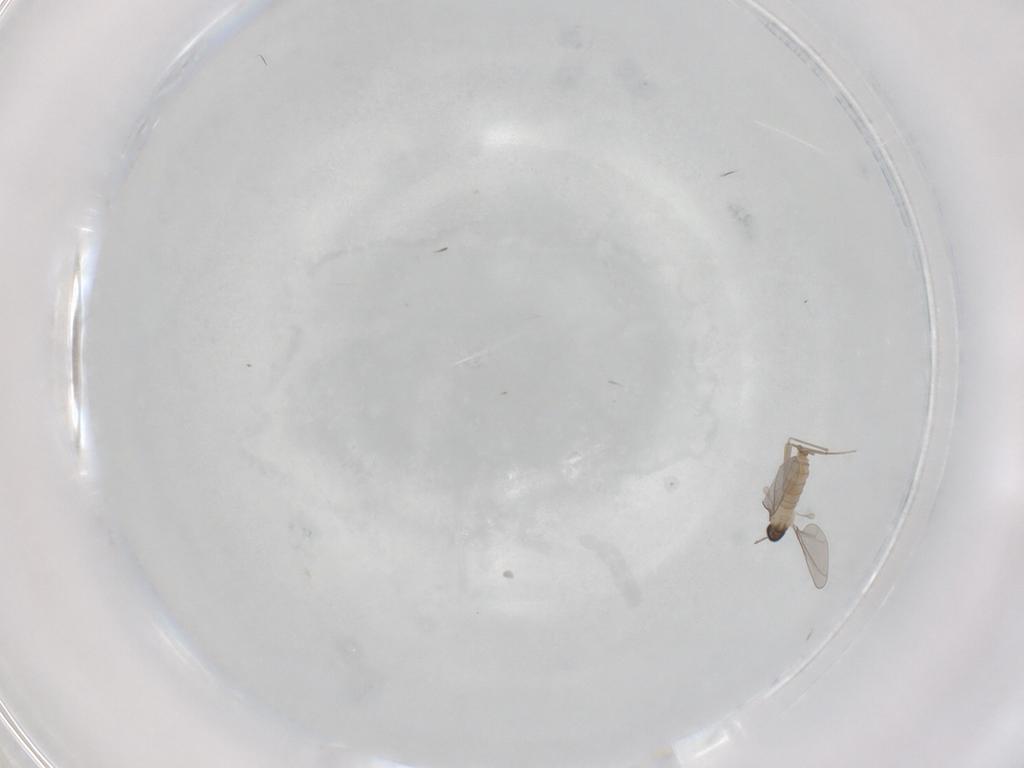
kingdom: Animalia
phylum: Arthropoda
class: Insecta
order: Diptera
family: Cecidomyiidae
